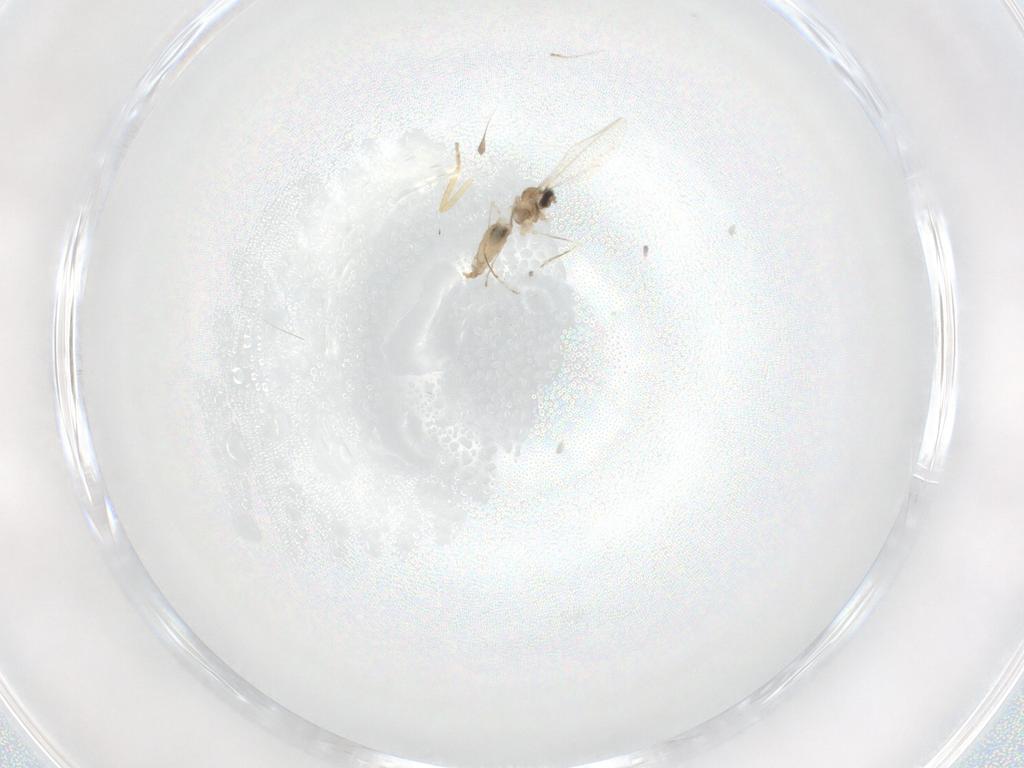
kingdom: Animalia
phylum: Arthropoda
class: Insecta
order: Diptera
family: Cecidomyiidae
